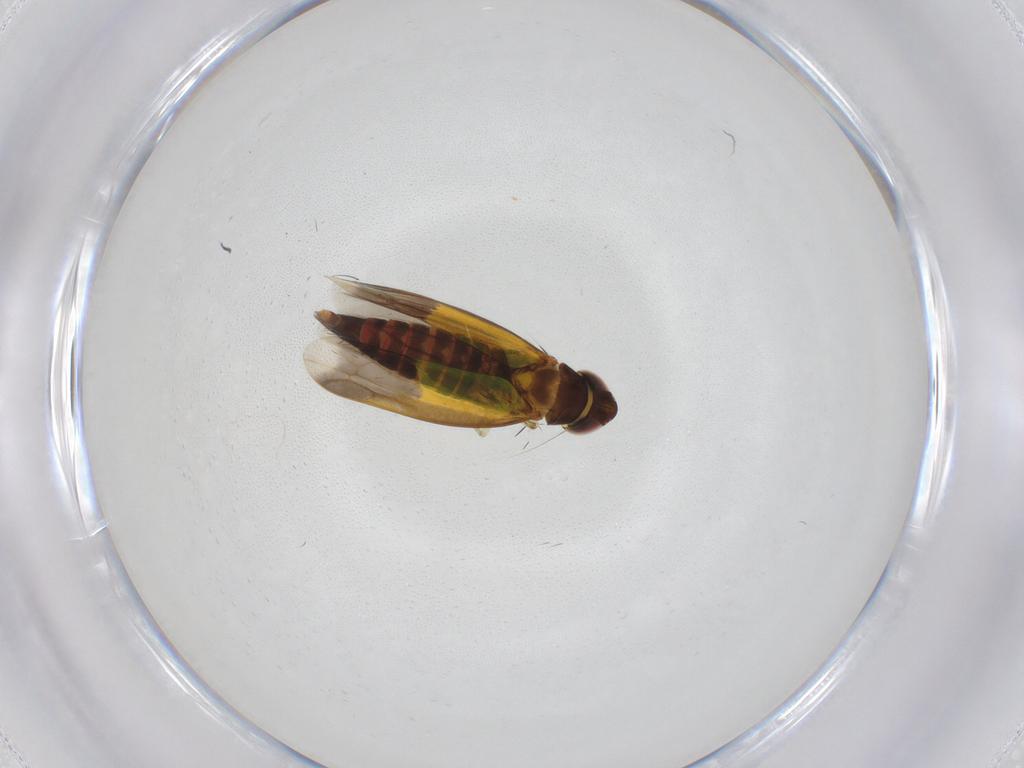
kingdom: Animalia
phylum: Arthropoda
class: Insecta
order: Hemiptera
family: Cicadellidae
